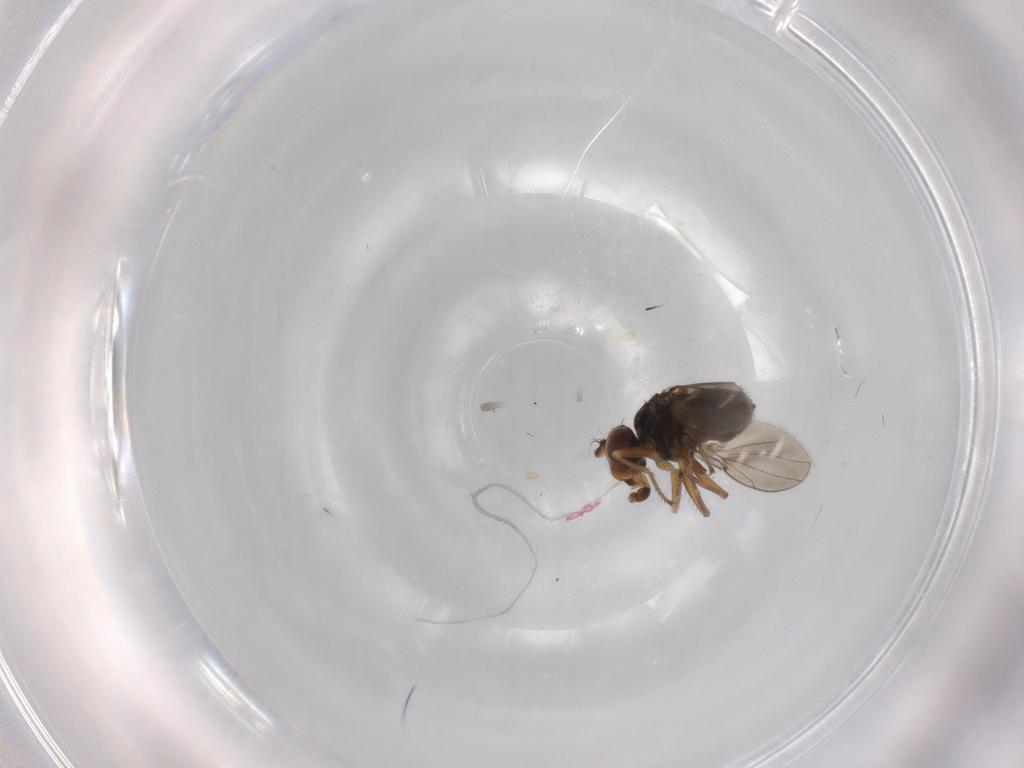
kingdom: Animalia
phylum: Arthropoda
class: Insecta
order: Diptera
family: Ephydridae
